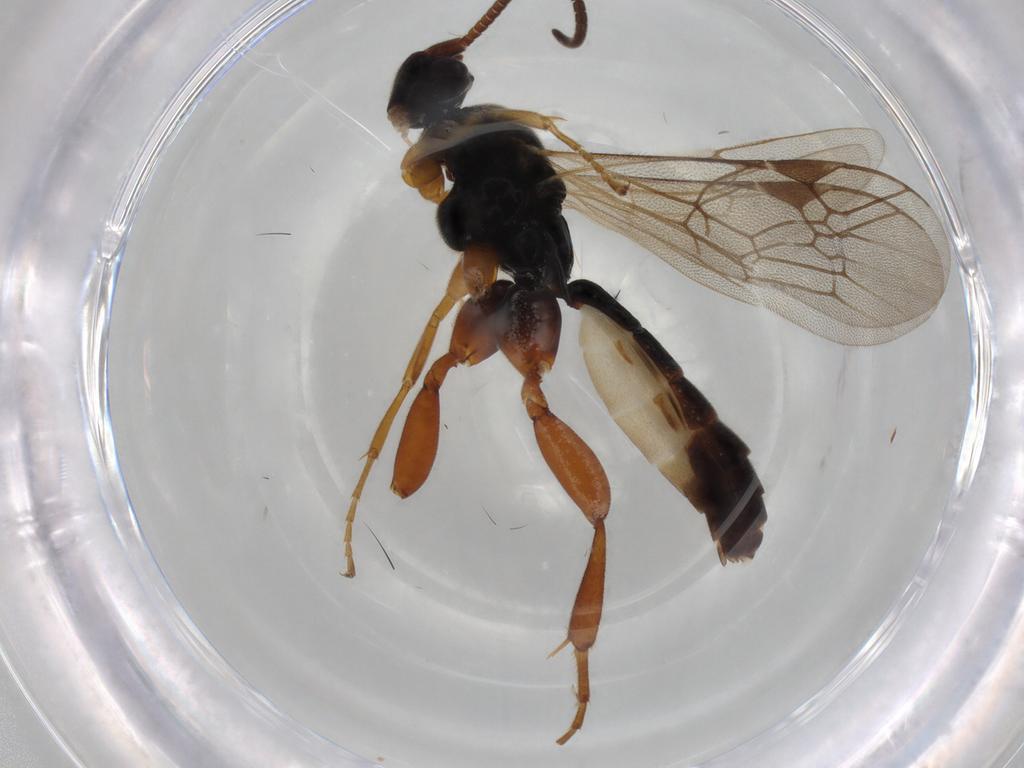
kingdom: Animalia
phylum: Arthropoda
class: Insecta
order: Hymenoptera
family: Ichneumonidae
